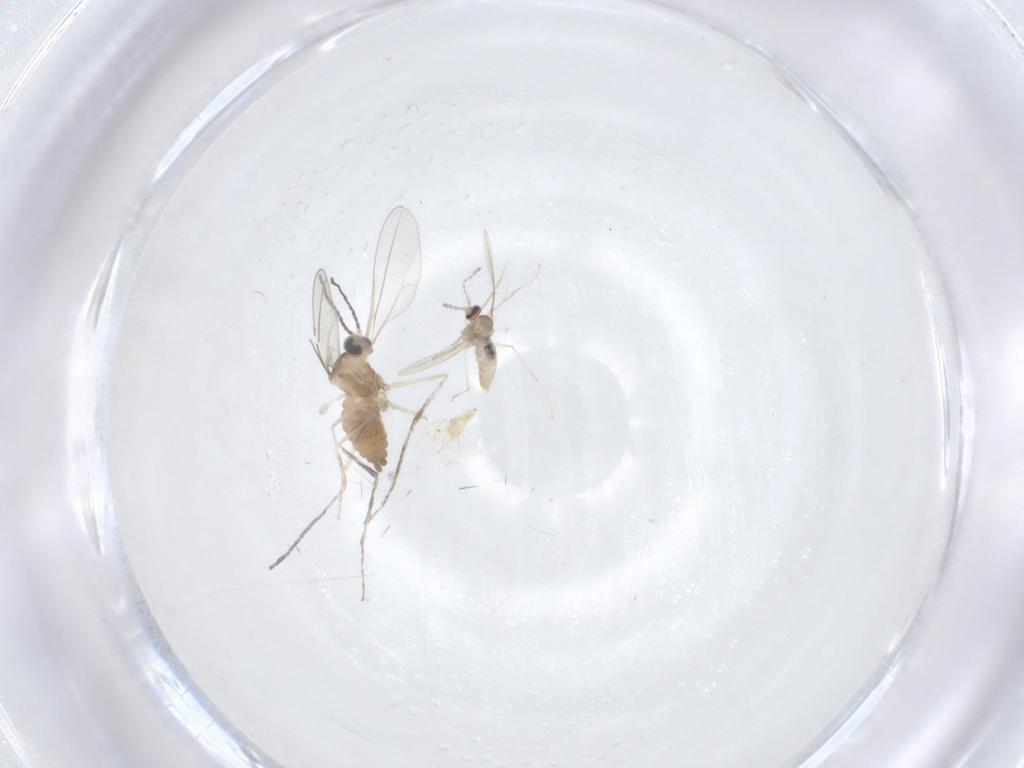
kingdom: Animalia
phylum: Arthropoda
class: Insecta
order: Diptera
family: Cecidomyiidae
